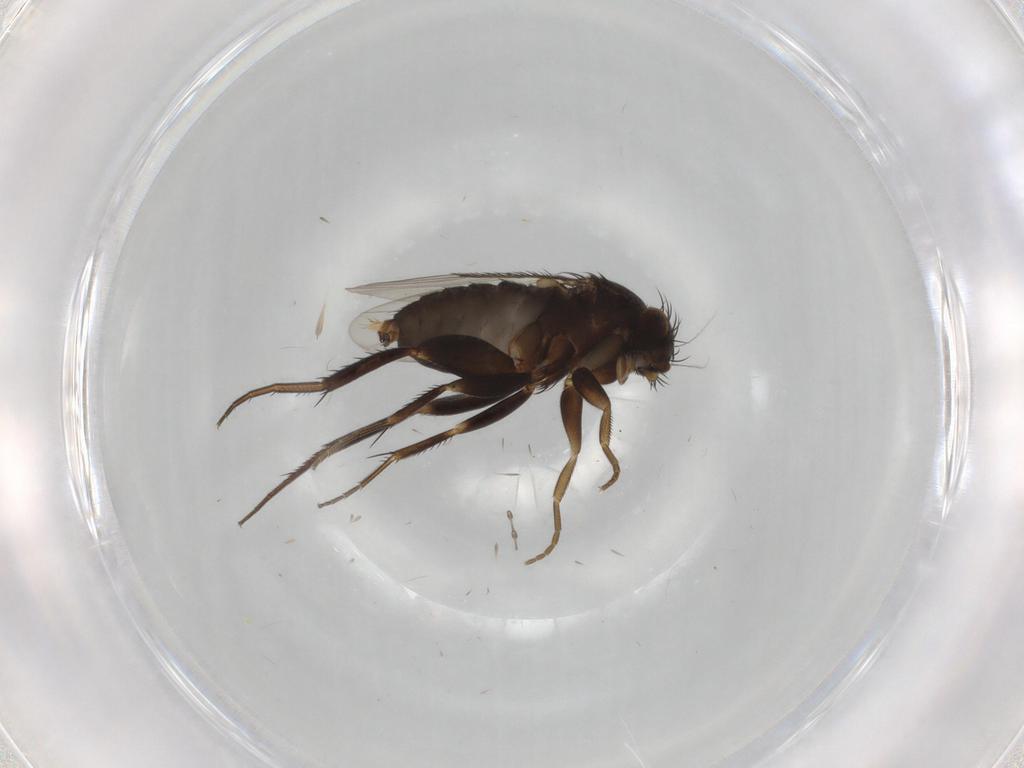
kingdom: Animalia
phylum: Arthropoda
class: Insecta
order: Diptera
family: Phoridae
